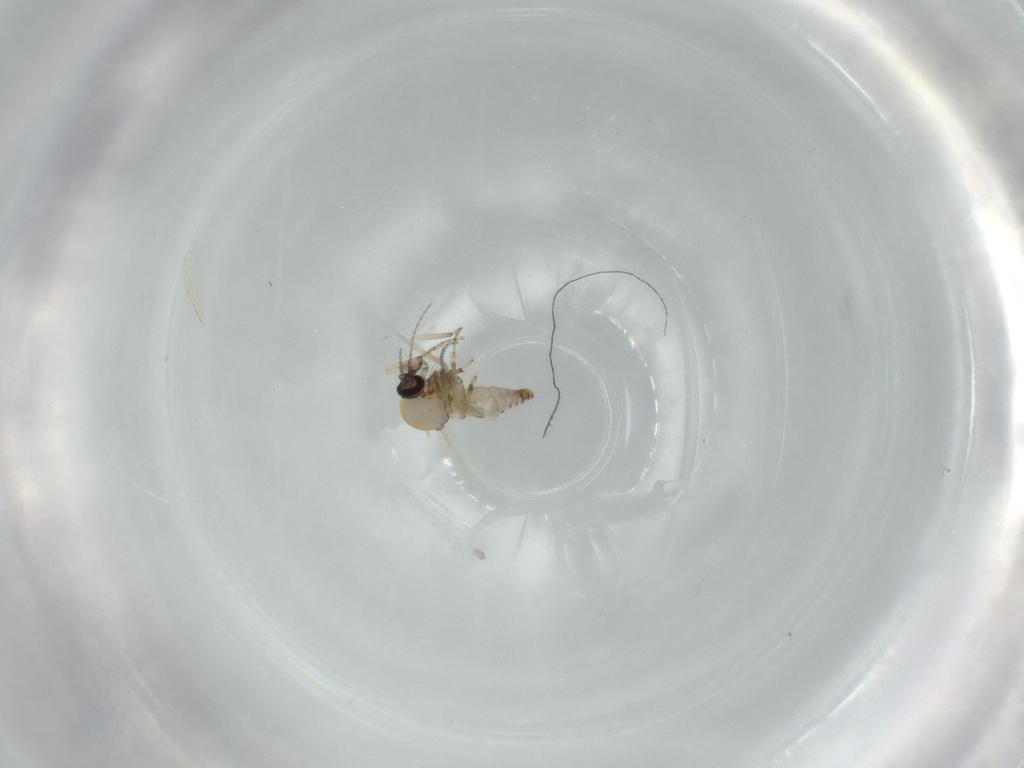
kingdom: Animalia
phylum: Arthropoda
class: Insecta
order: Diptera
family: Ceratopogonidae
